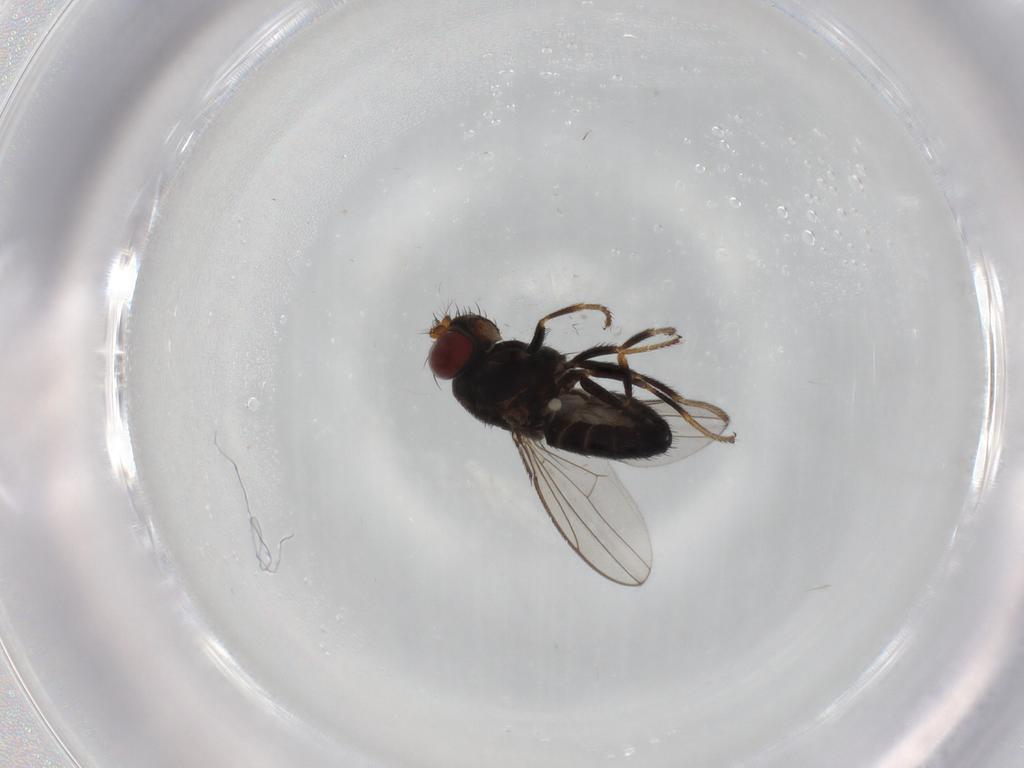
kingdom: Animalia
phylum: Arthropoda
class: Insecta
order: Diptera
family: Ephydridae
